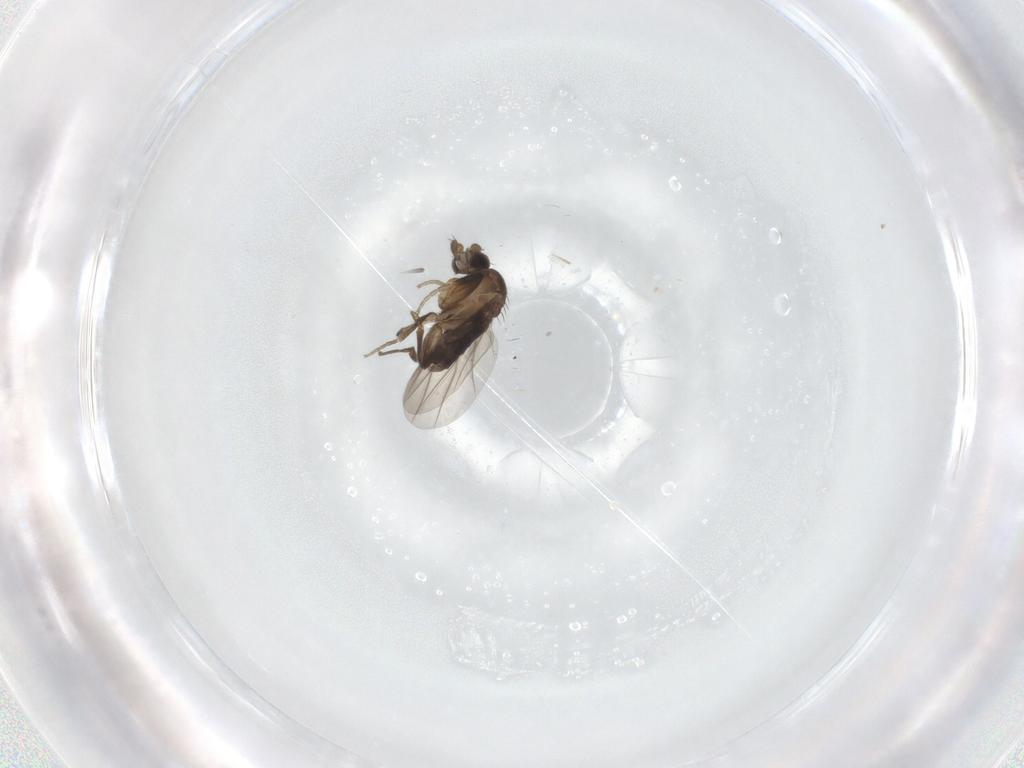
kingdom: Animalia
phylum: Arthropoda
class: Insecta
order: Diptera
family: Phoridae
